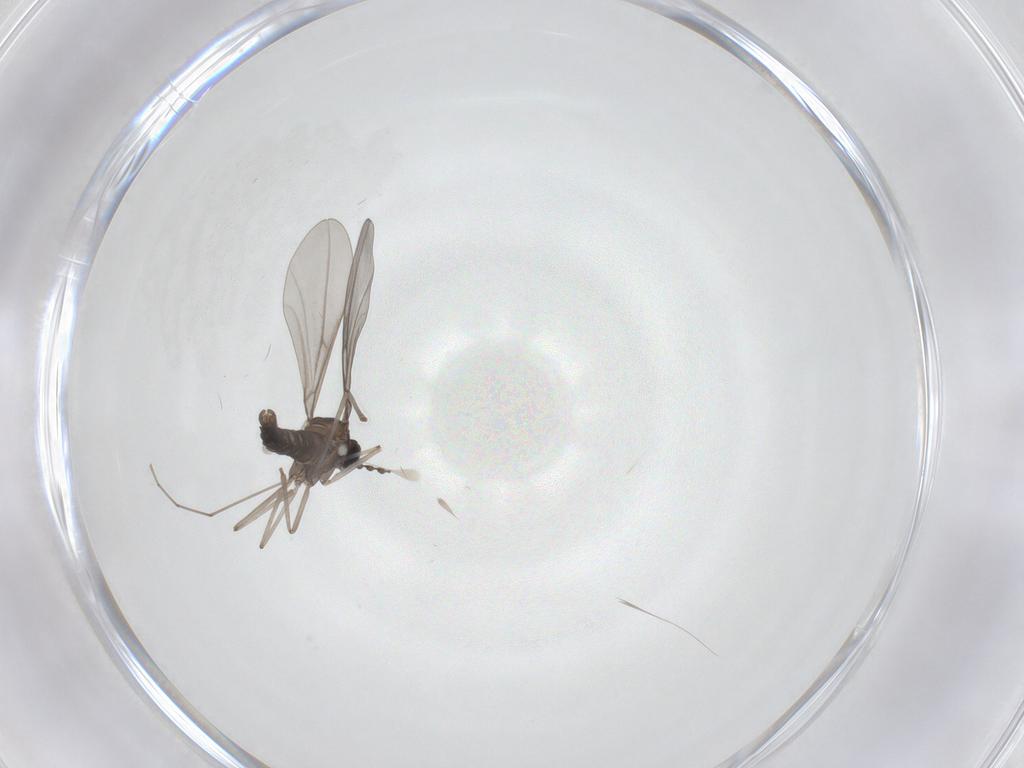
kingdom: Animalia
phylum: Arthropoda
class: Insecta
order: Diptera
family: Cecidomyiidae
